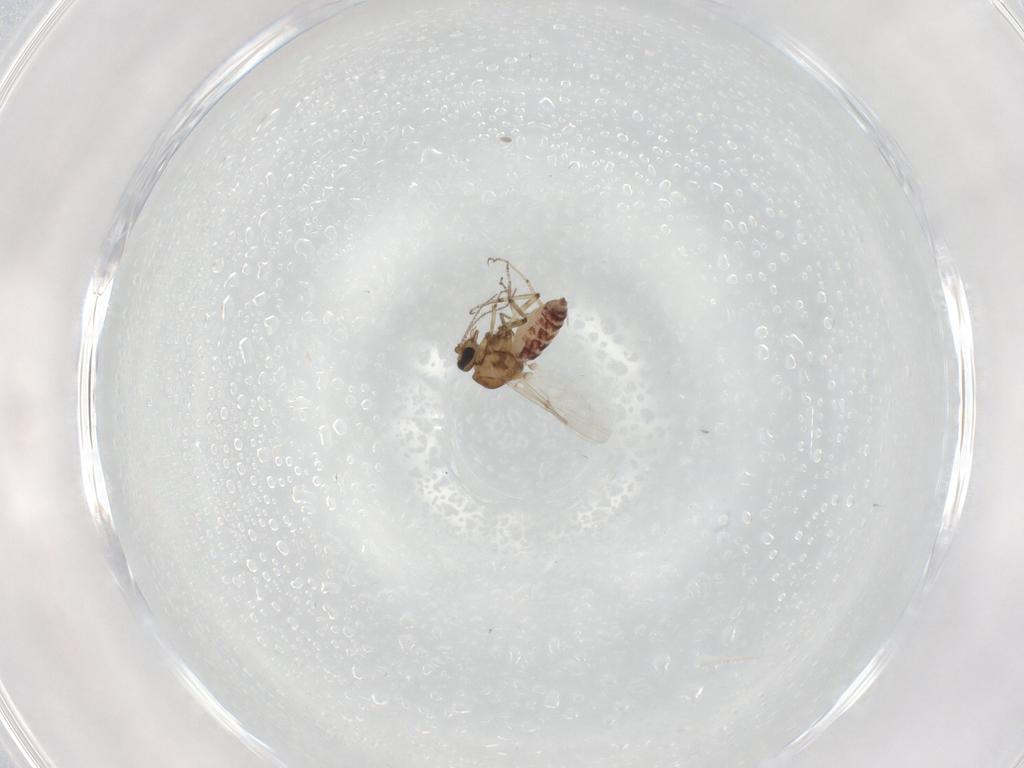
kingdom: Animalia
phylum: Arthropoda
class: Insecta
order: Diptera
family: Ceratopogonidae
